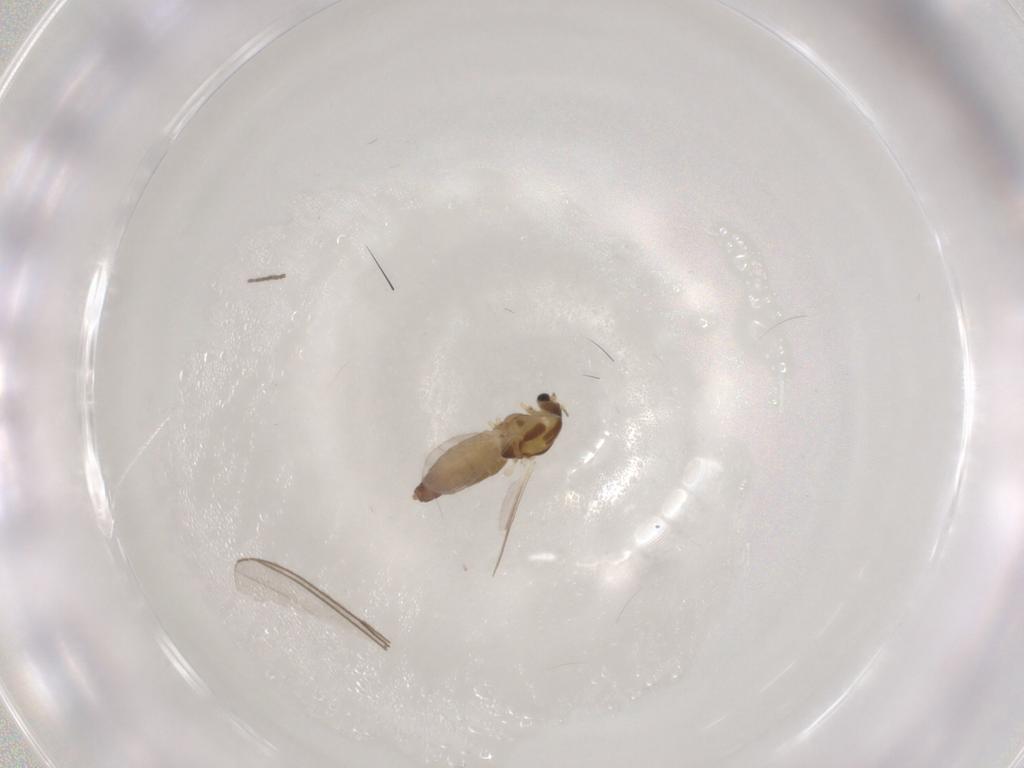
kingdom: Animalia
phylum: Arthropoda
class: Insecta
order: Diptera
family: Chironomidae
